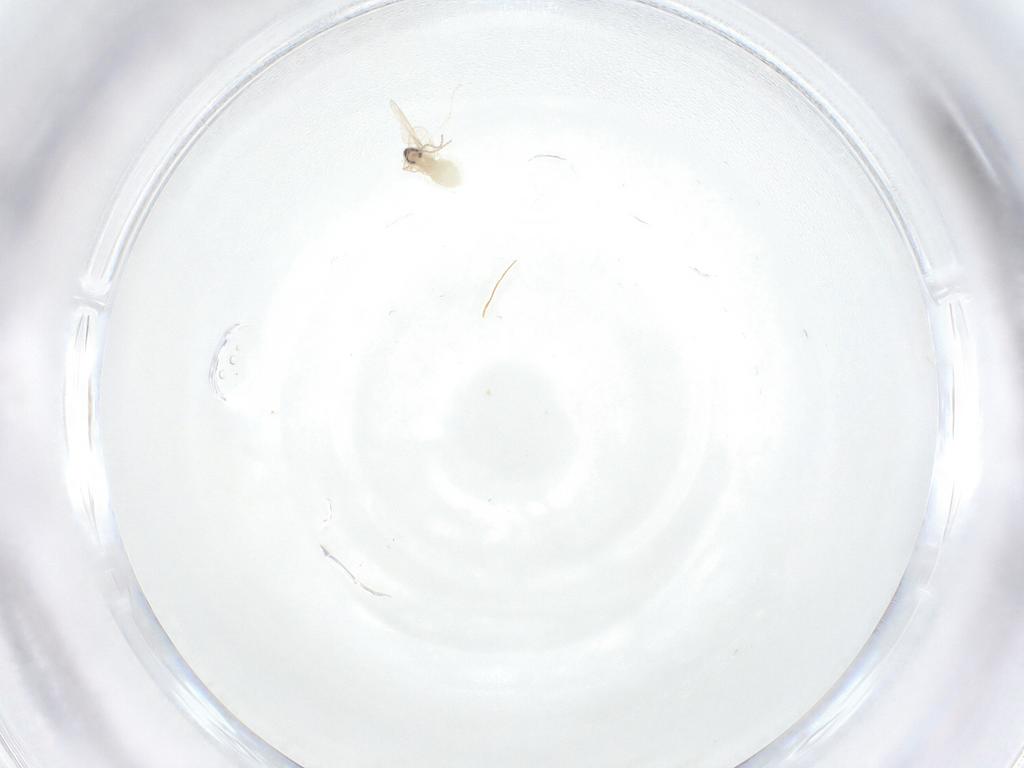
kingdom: Animalia
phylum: Arthropoda
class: Insecta
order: Diptera
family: Cecidomyiidae
